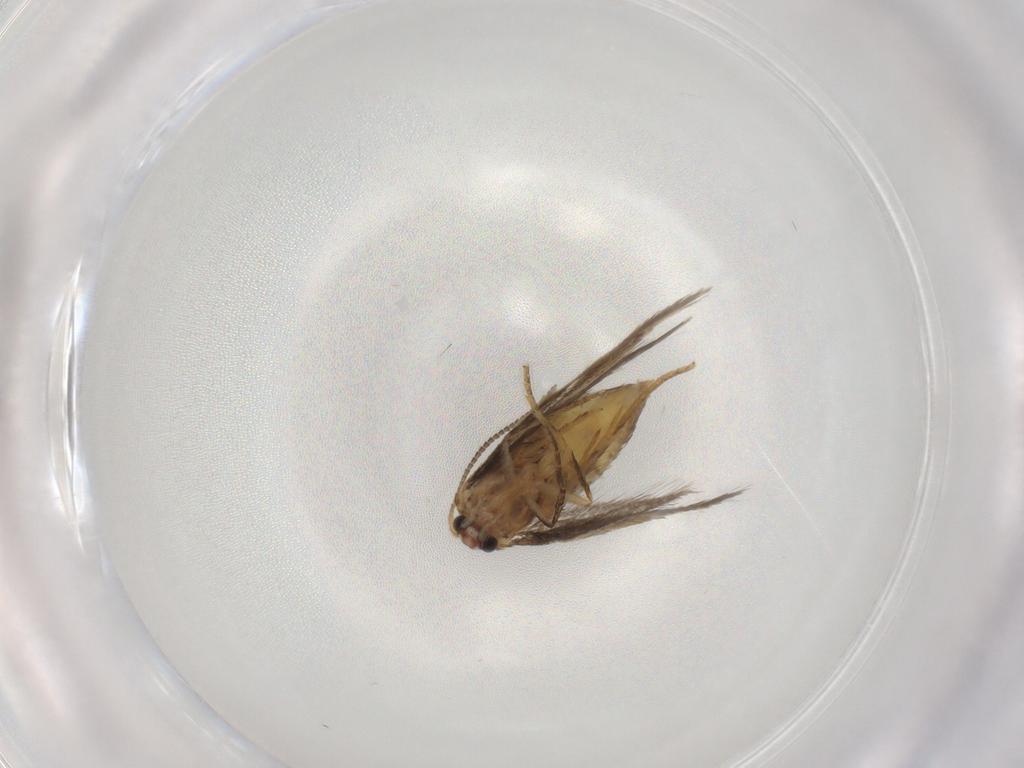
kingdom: Animalia
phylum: Arthropoda
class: Insecta
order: Lepidoptera
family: Nepticulidae
